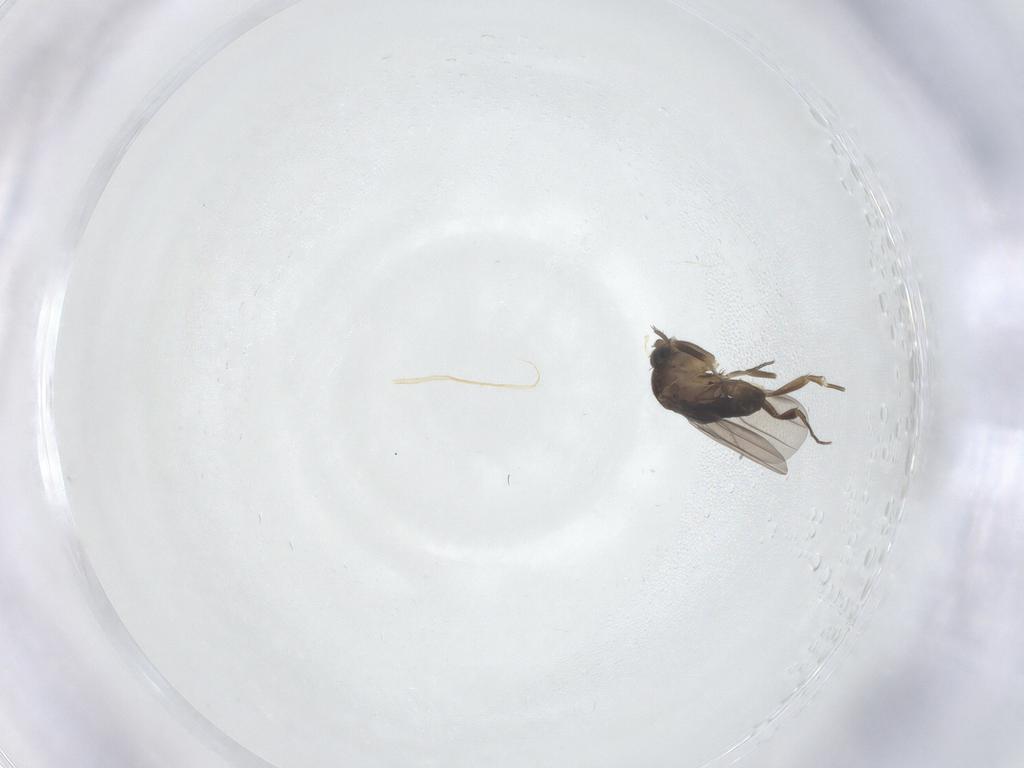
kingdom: Animalia
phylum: Arthropoda
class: Insecta
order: Diptera
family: Phoridae
